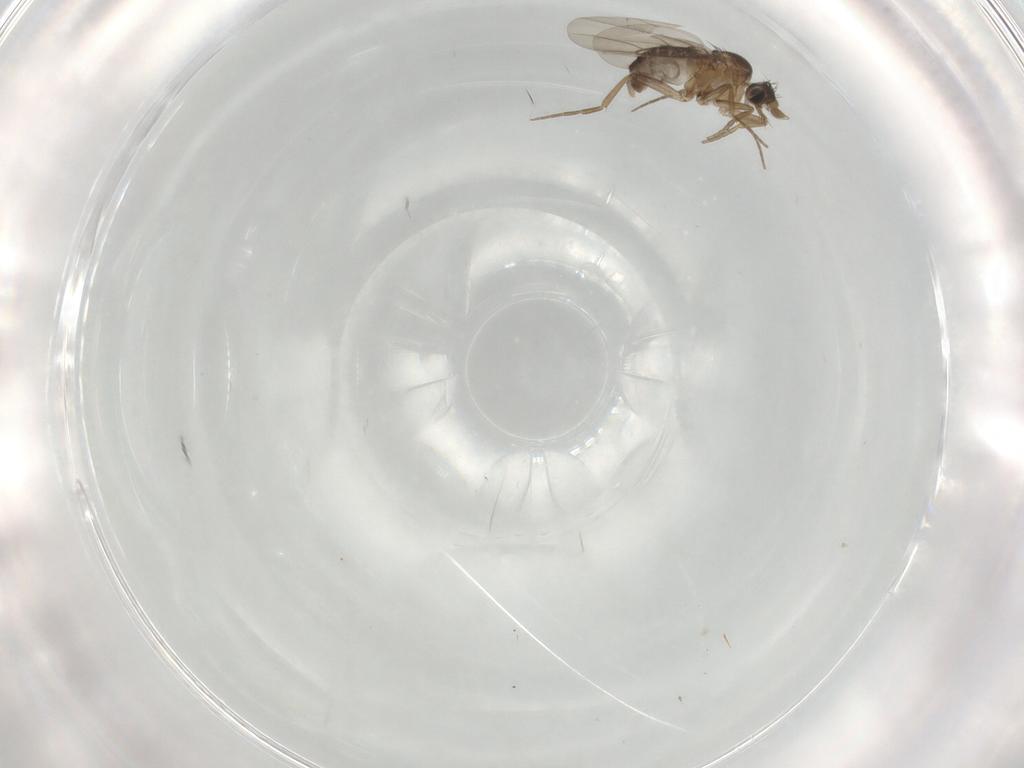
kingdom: Animalia
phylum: Arthropoda
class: Insecta
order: Diptera
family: Phoridae
